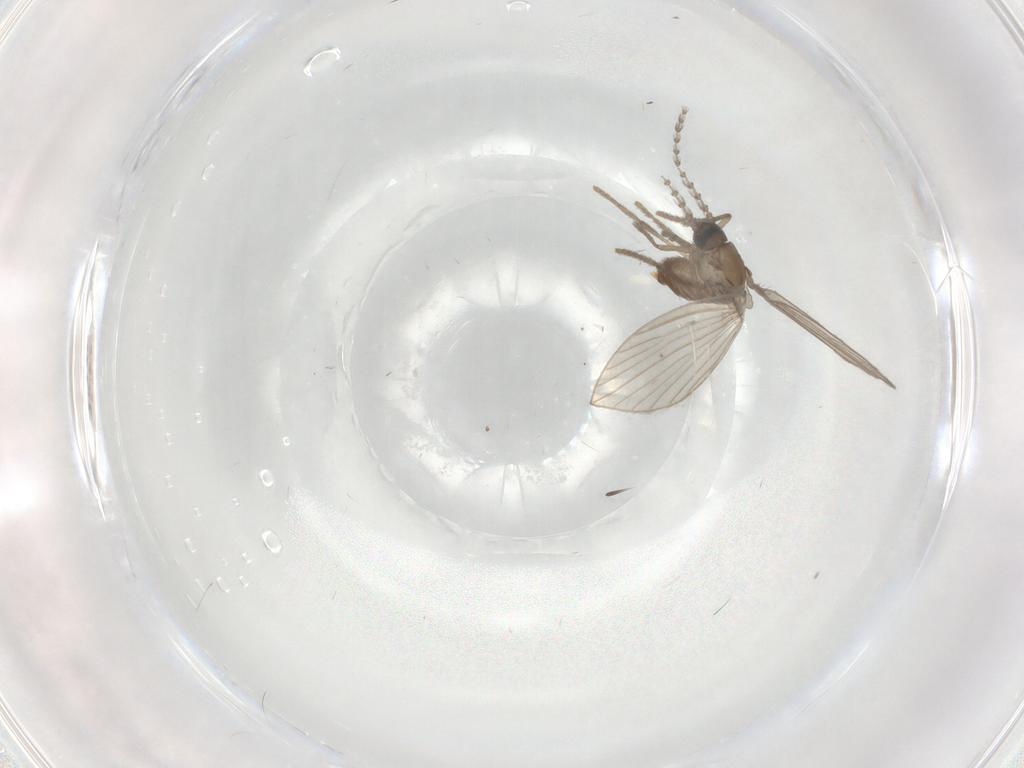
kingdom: Animalia
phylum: Arthropoda
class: Insecta
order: Diptera
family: Psychodidae
